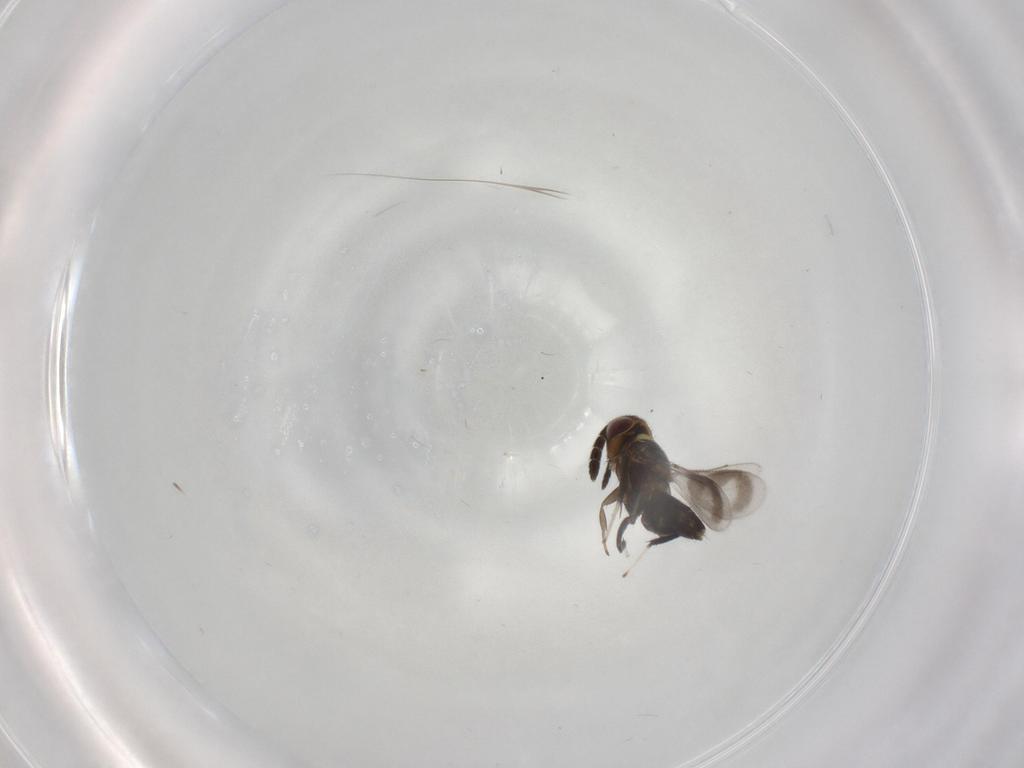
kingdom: Animalia
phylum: Arthropoda
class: Insecta
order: Hymenoptera
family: Aphelinidae
